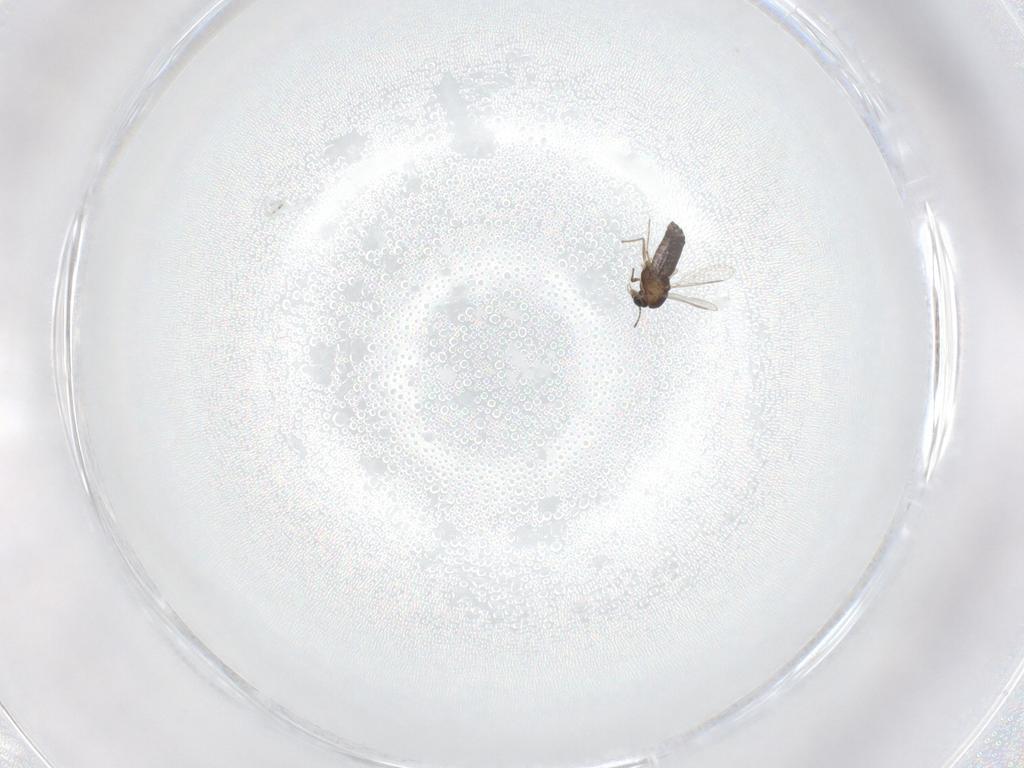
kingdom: Animalia
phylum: Arthropoda
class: Insecta
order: Diptera
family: Chironomidae
